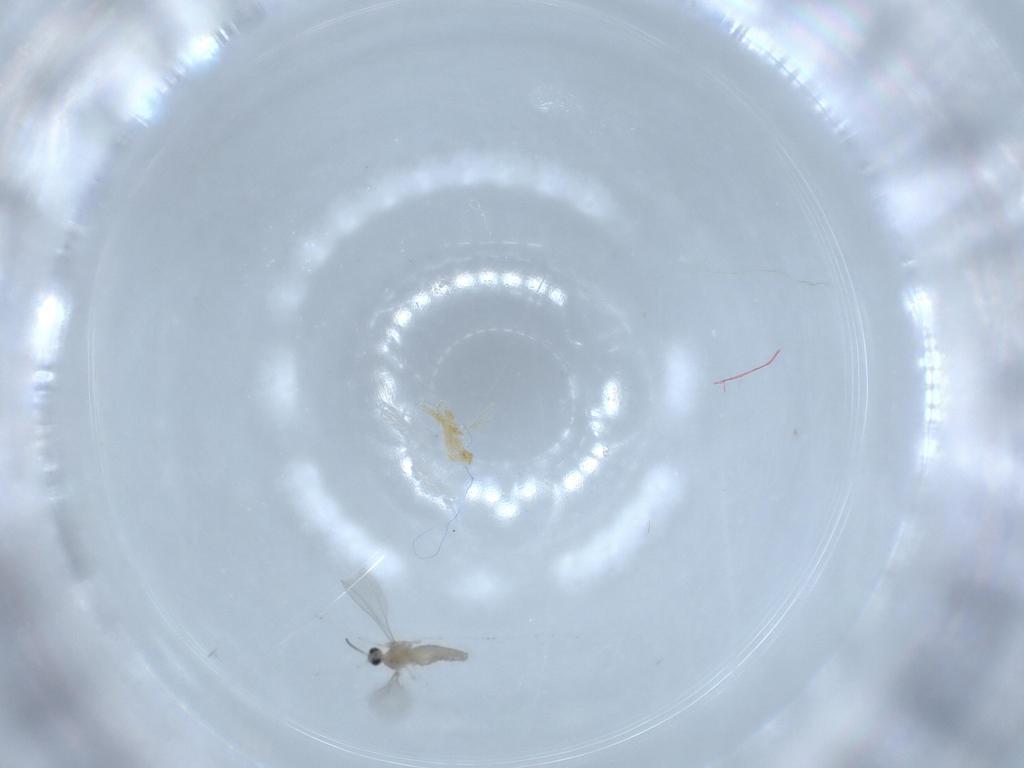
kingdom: Animalia
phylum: Arthropoda
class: Insecta
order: Diptera
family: Cecidomyiidae
